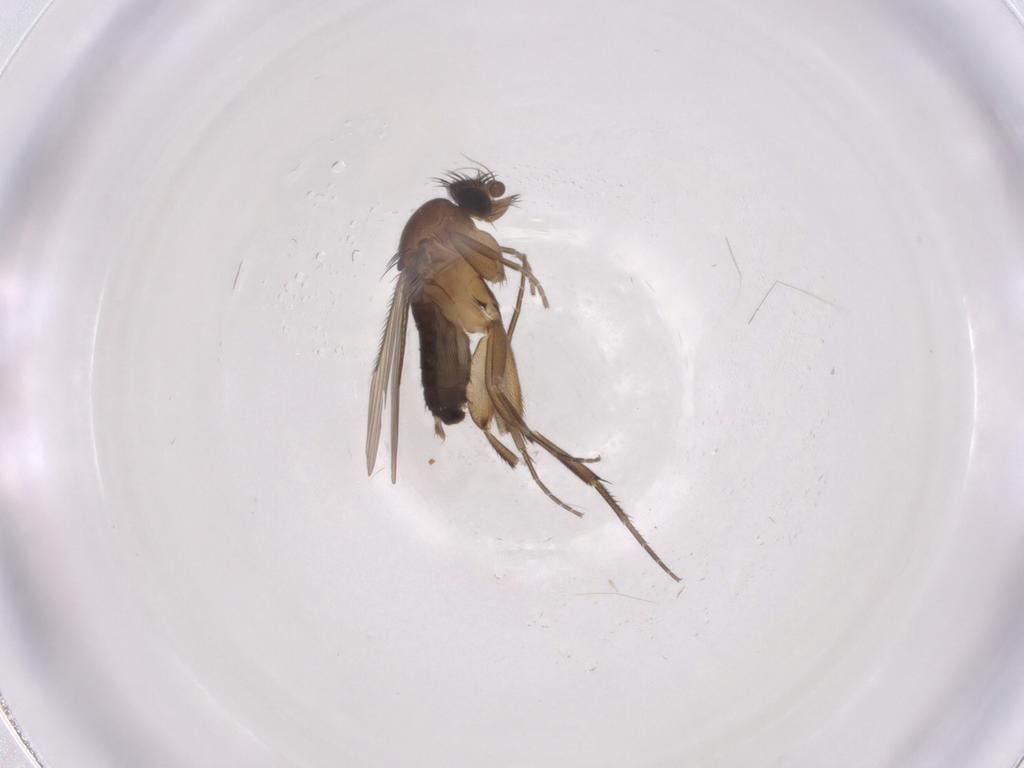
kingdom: Animalia
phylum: Arthropoda
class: Insecta
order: Diptera
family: Phoridae
